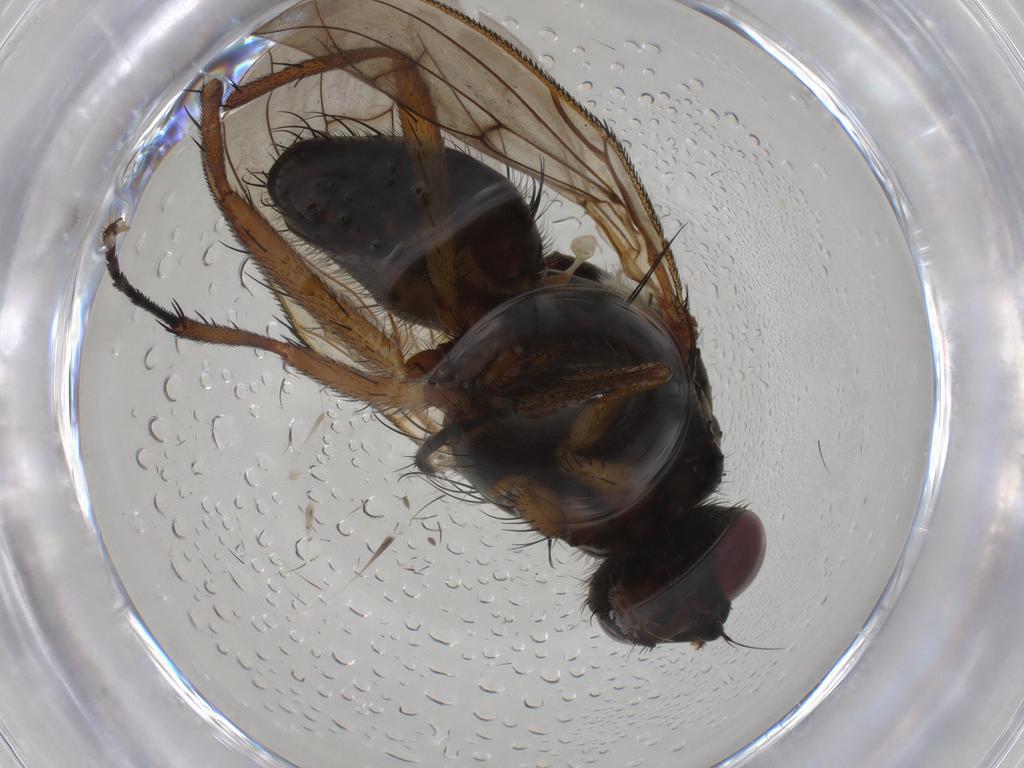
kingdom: Animalia
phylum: Arthropoda
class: Insecta
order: Diptera
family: Anthomyiidae
